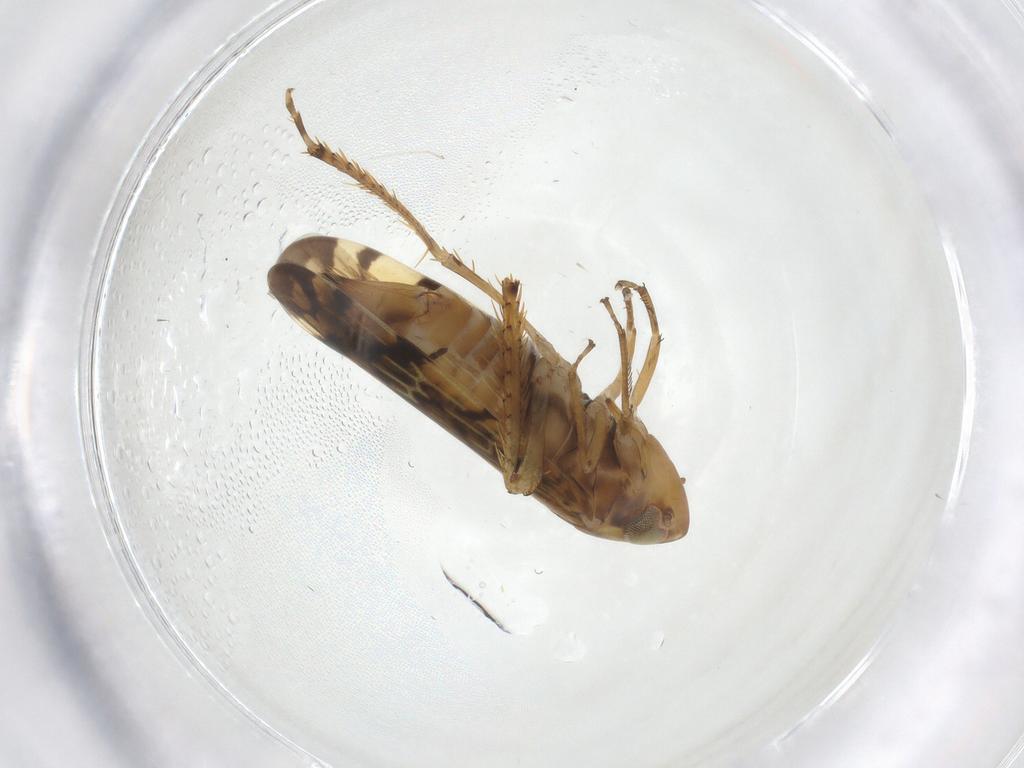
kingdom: Animalia
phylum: Arthropoda
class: Insecta
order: Hemiptera
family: Cicadellidae
